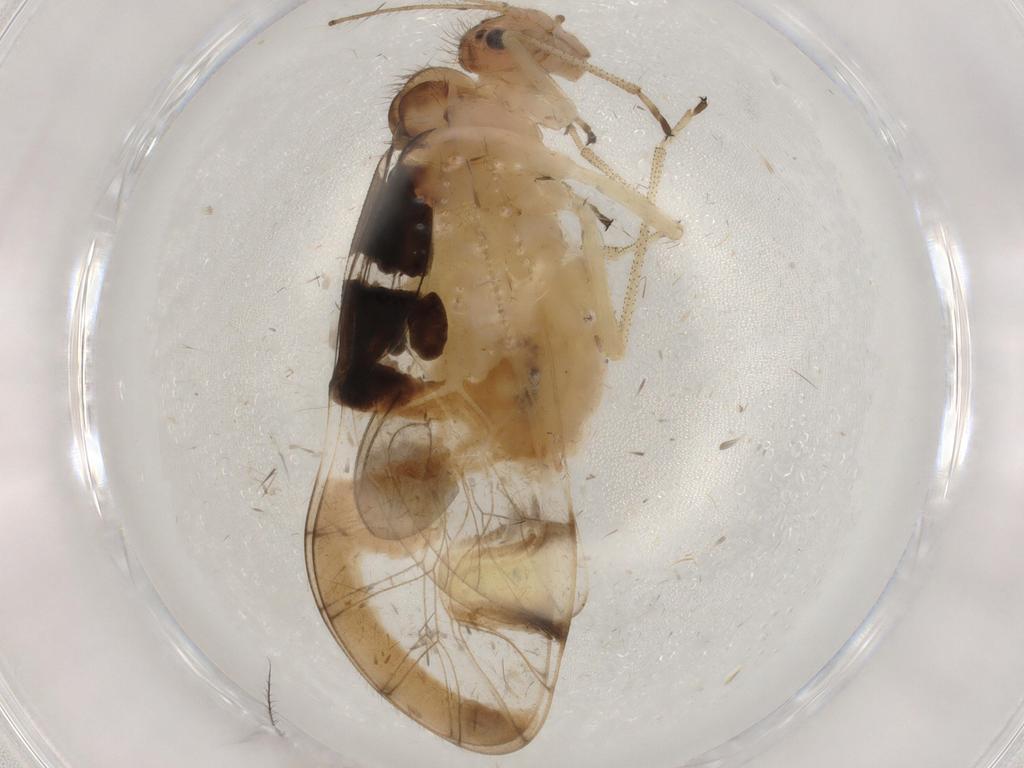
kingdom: Animalia
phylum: Arthropoda
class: Insecta
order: Psocodea
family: Amphipsocidae
